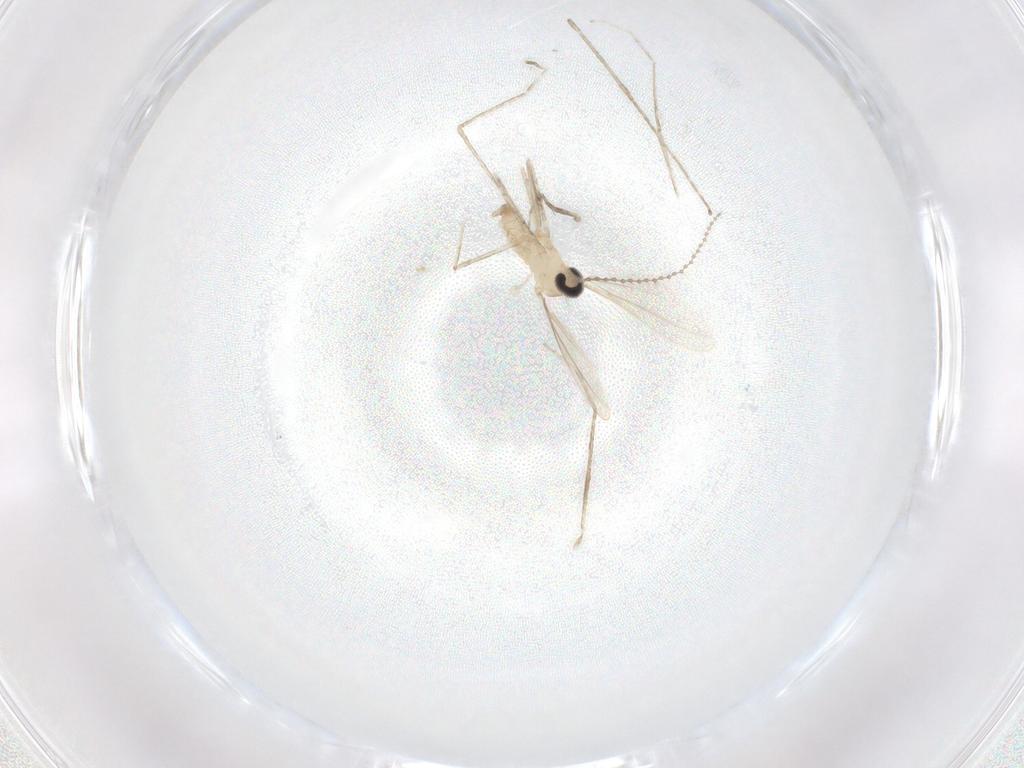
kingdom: Animalia
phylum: Arthropoda
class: Insecta
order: Diptera
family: Cecidomyiidae
